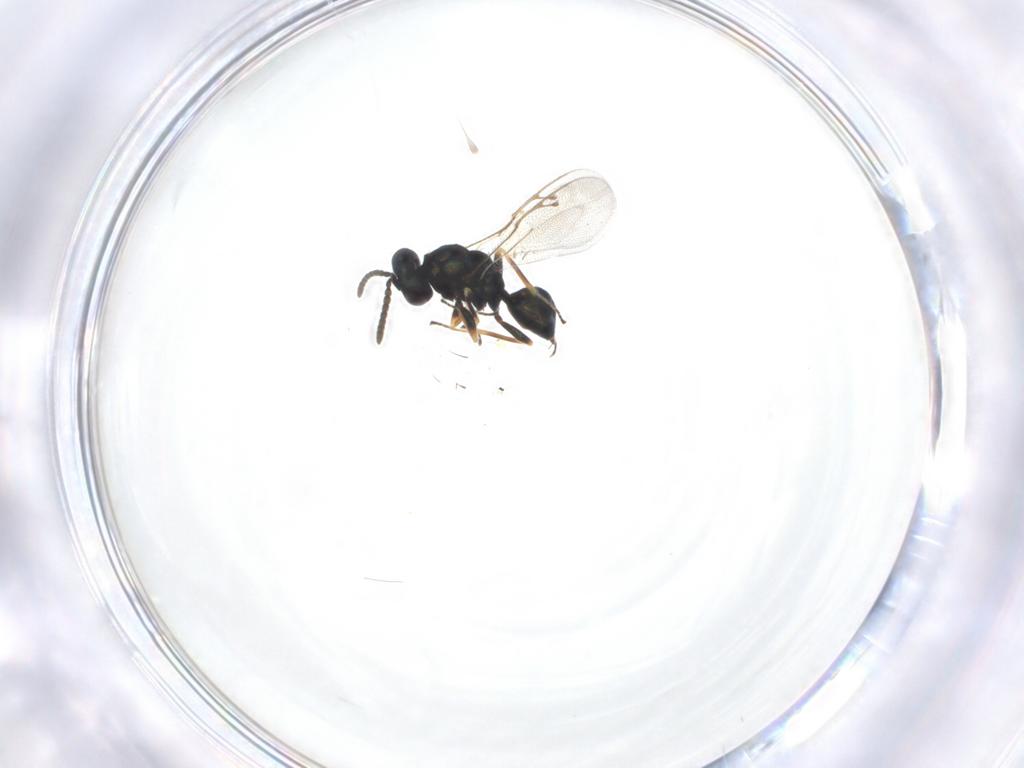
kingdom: Animalia
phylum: Arthropoda
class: Insecta
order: Hymenoptera
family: Pteromalidae
